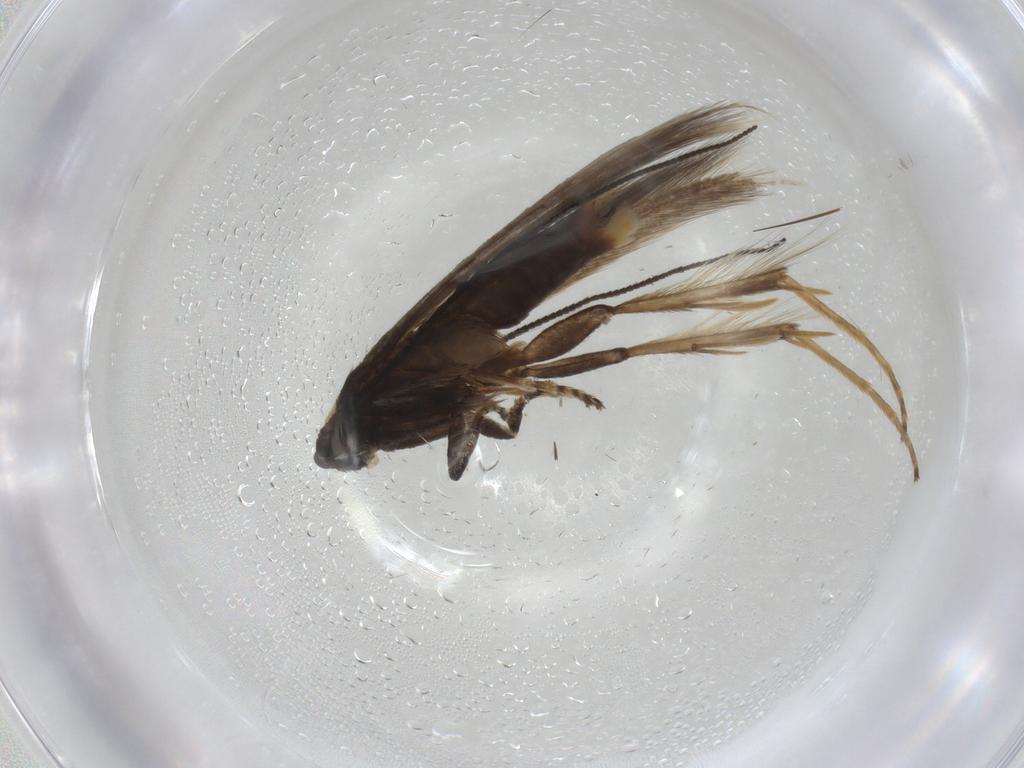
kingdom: Animalia
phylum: Arthropoda
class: Insecta
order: Lepidoptera
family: Tineidae
